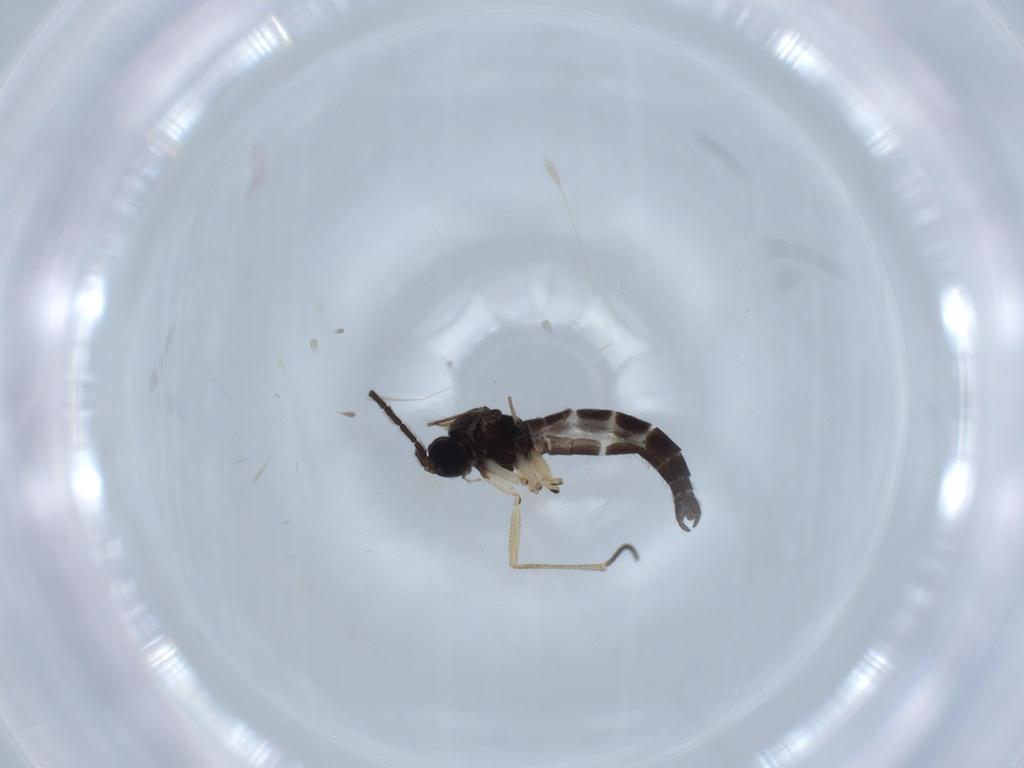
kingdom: Animalia
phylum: Arthropoda
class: Insecta
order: Diptera
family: Sciaridae
